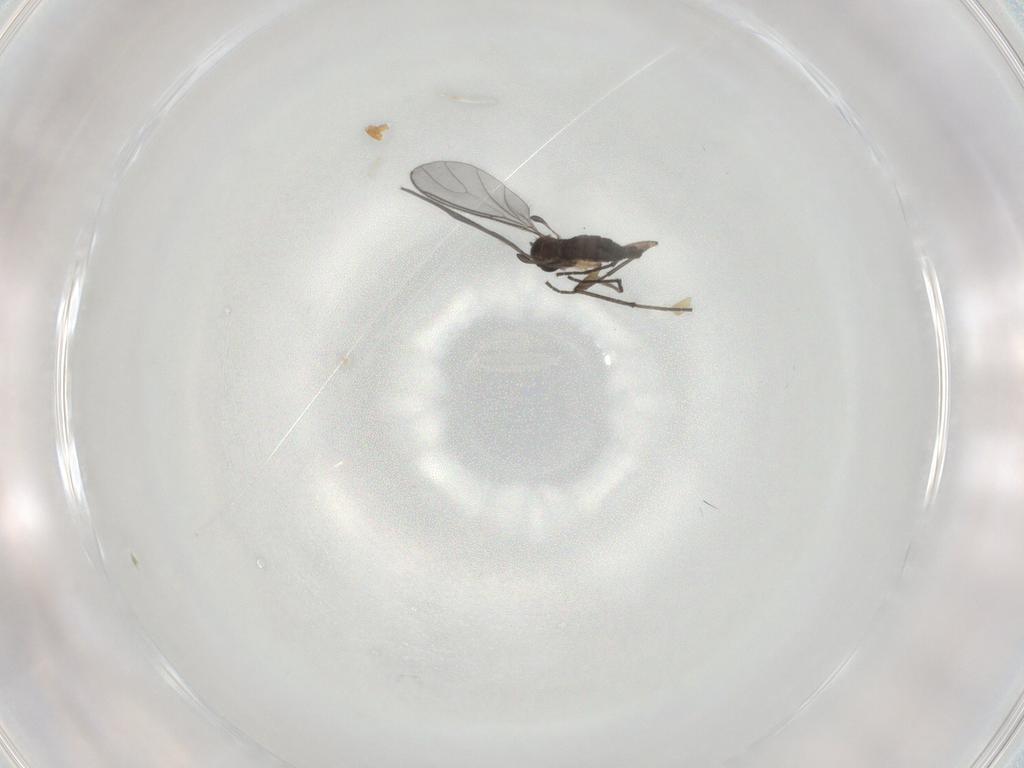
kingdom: Animalia
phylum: Arthropoda
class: Insecta
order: Diptera
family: Sciaridae
